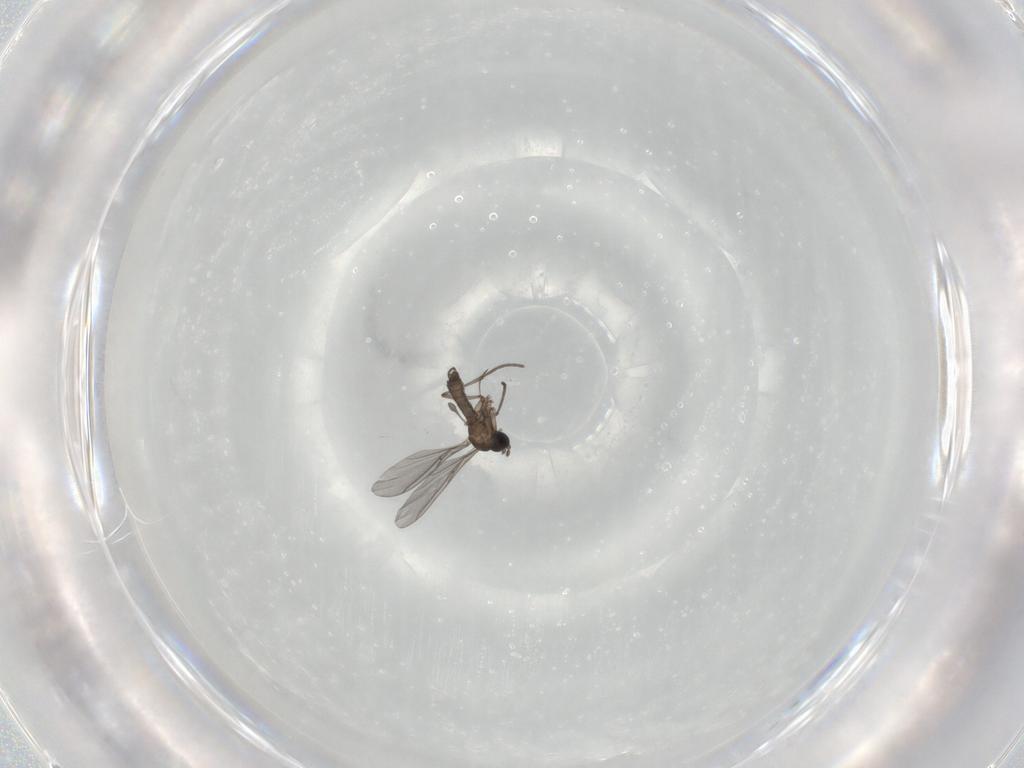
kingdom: Animalia
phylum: Arthropoda
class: Insecta
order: Diptera
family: Sciaridae
